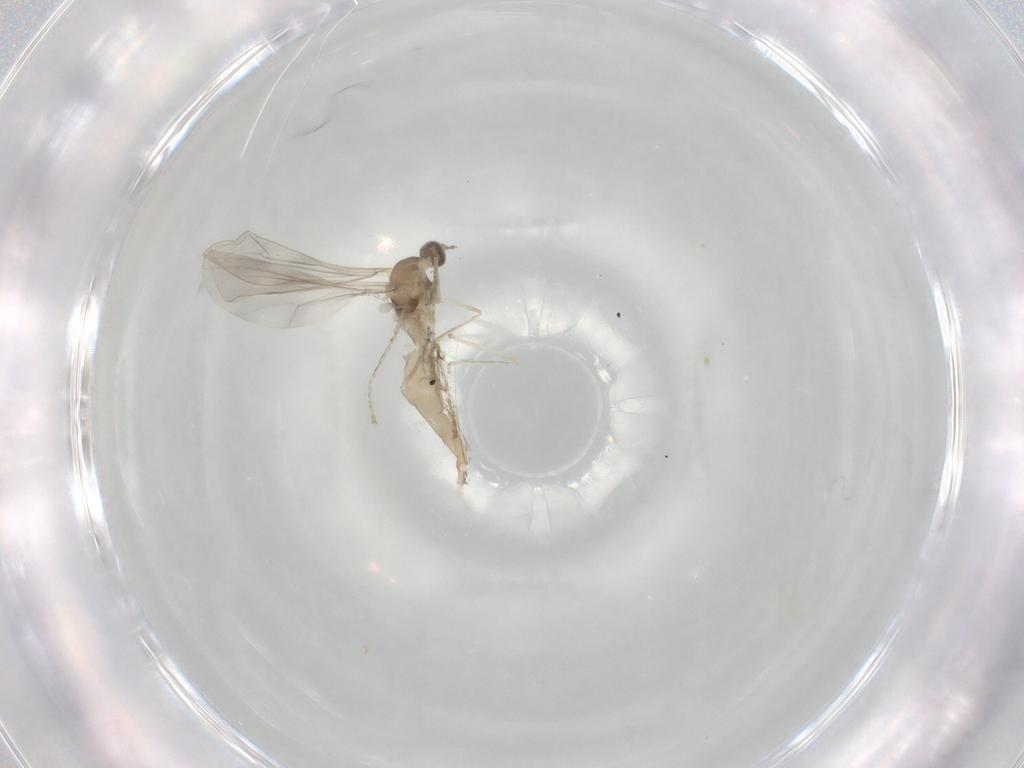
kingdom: Animalia
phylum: Arthropoda
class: Insecta
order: Diptera
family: Cecidomyiidae
